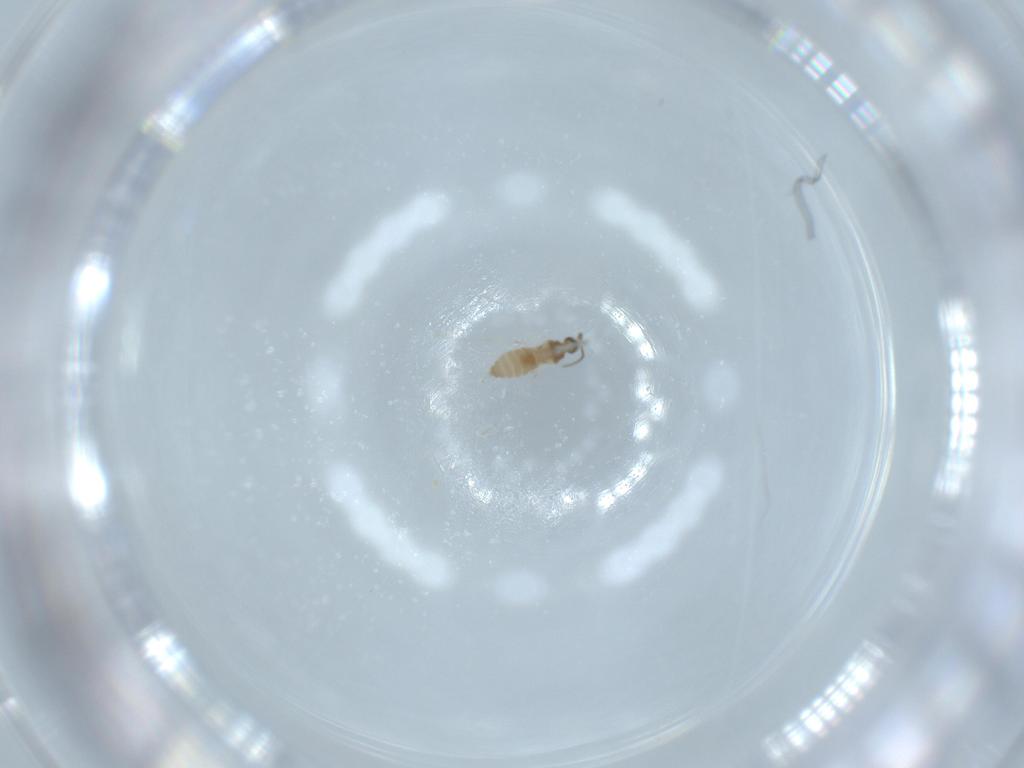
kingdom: Animalia
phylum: Arthropoda
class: Insecta
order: Diptera
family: Cecidomyiidae
